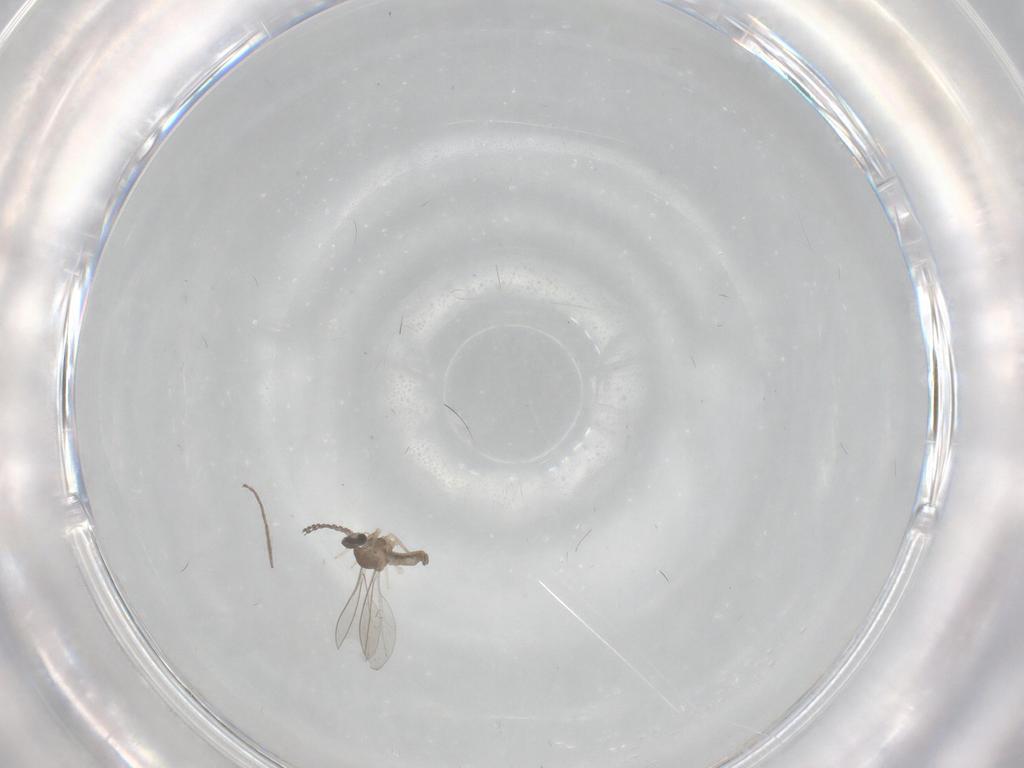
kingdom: Animalia
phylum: Arthropoda
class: Insecta
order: Diptera
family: Chironomidae
